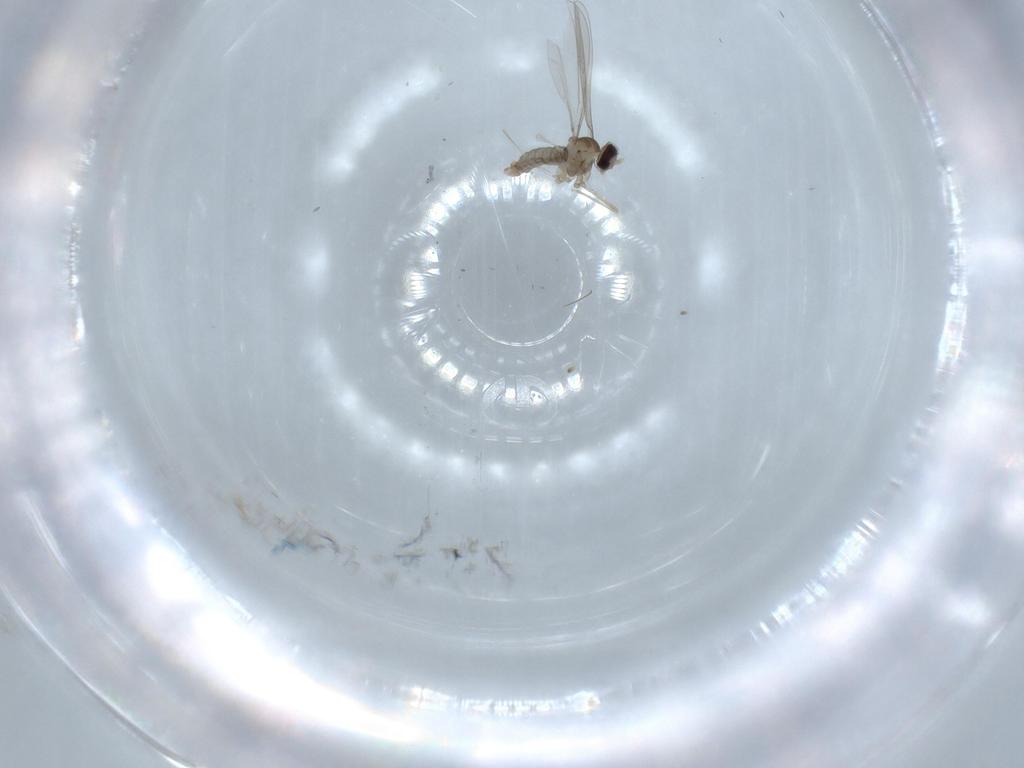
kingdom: Animalia
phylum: Arthropoda
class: Insecta
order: Diptera
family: Cecidomyiidae
